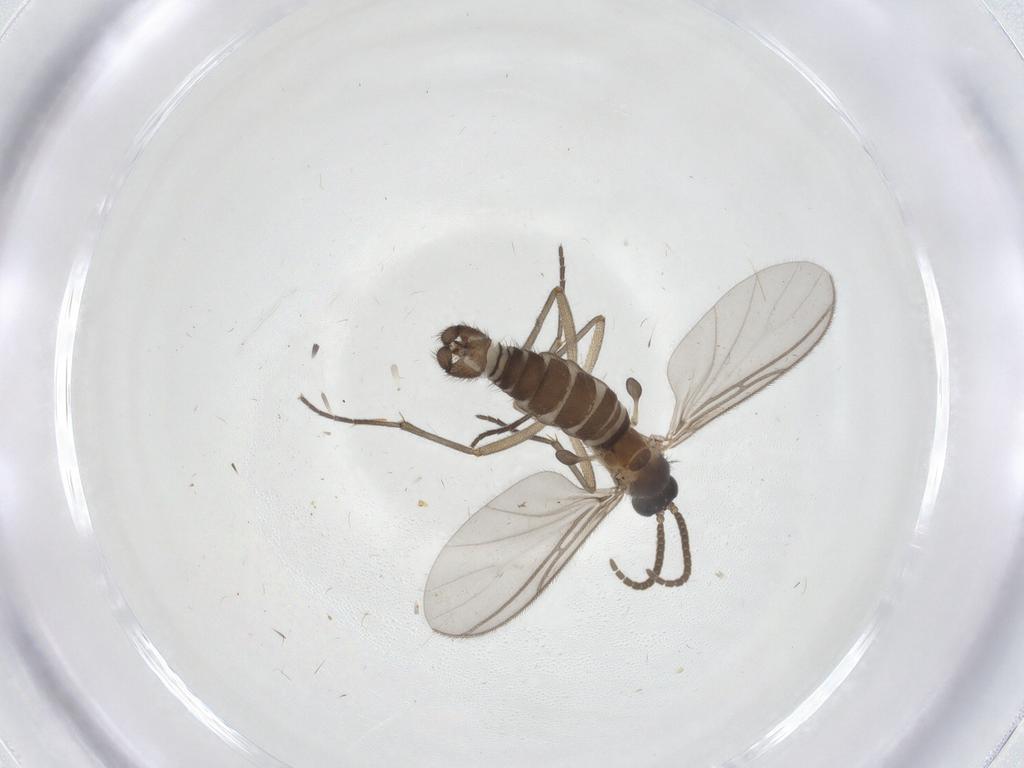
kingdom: Animalia
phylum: Arthropoda
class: Insecta
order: Diptera
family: Sciaridae
